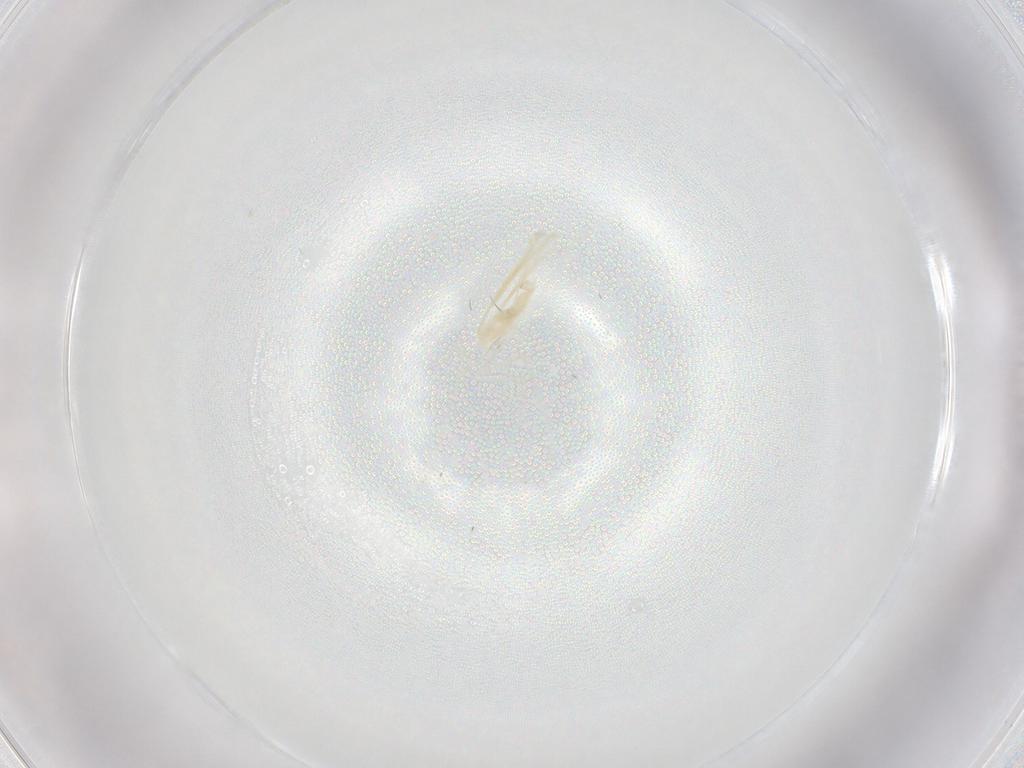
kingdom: Animalia
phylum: Arthropoda
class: Insecta
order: Diptera
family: Cecidomyiidae
